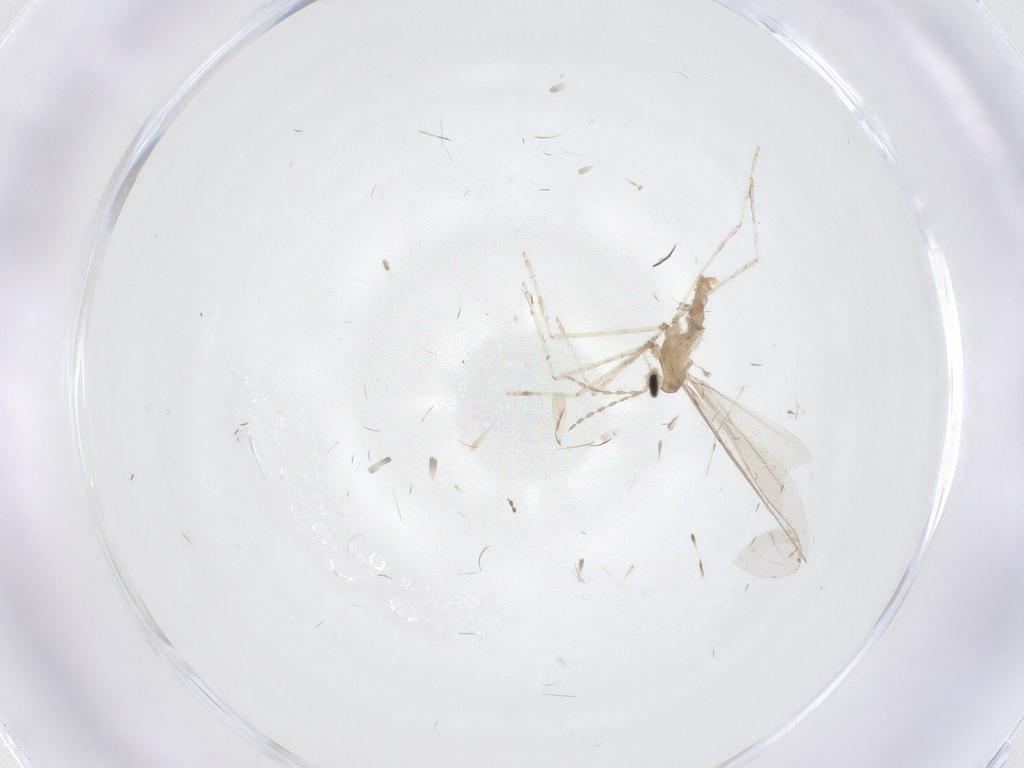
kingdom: Animalia
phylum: Arthropoda
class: Insecta
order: Diptera
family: Cecidomyiidae
